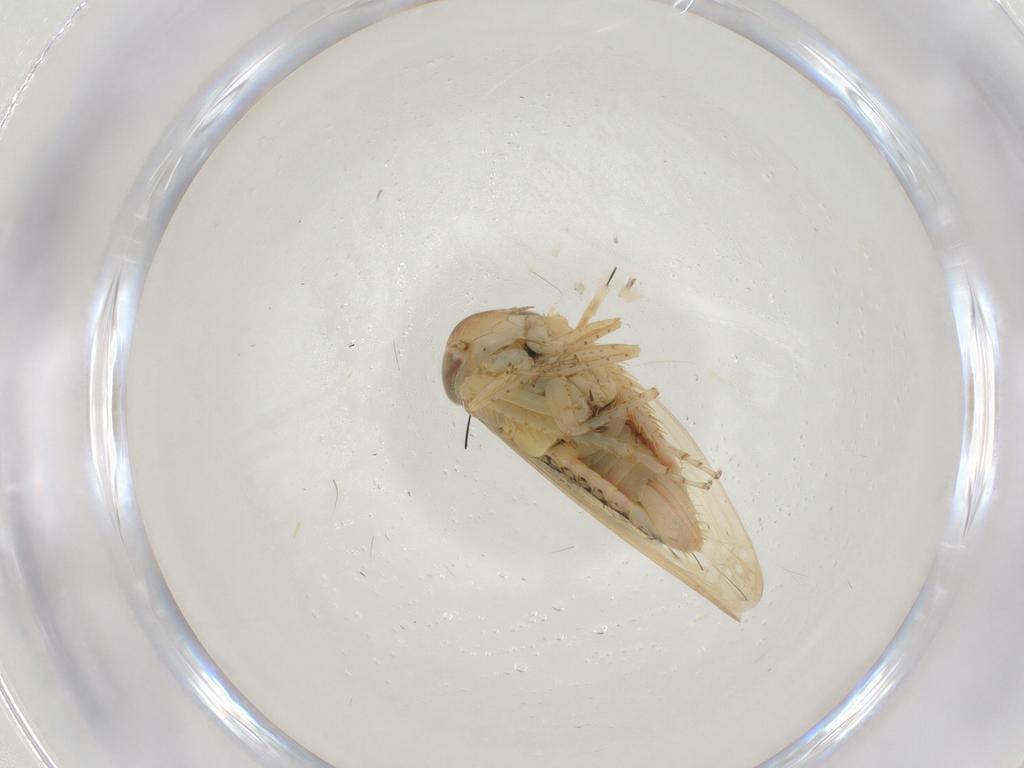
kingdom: Animalia
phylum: Arthropoda
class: Insecta
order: Hemiptera
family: Cicadellidae
